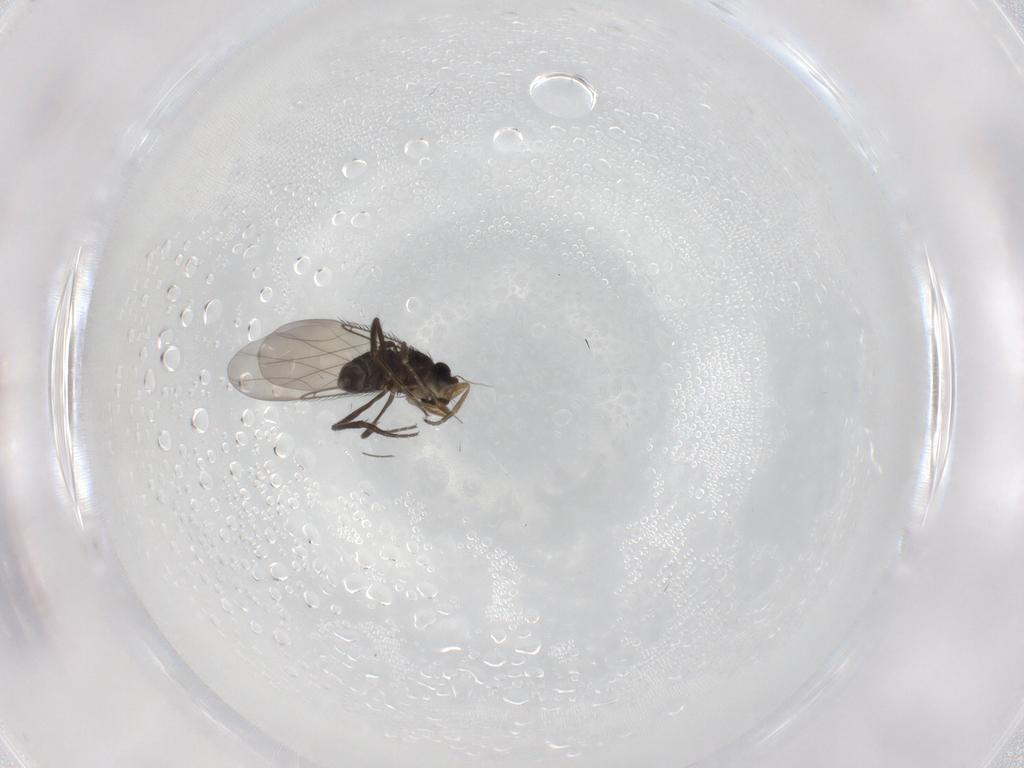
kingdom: Animalia
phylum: Arthropoda
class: Insecta
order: Diptera
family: Phoridae
